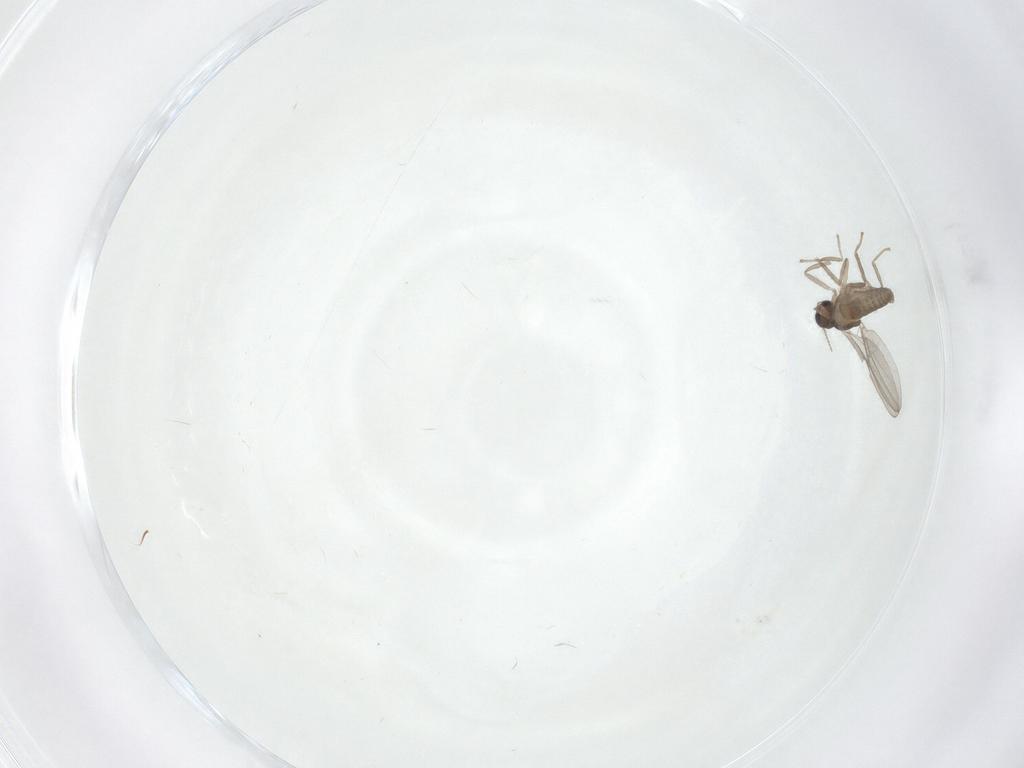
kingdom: Animalia
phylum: Arthropoda
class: Insecta
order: Diptera
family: Cecidomyiidae
